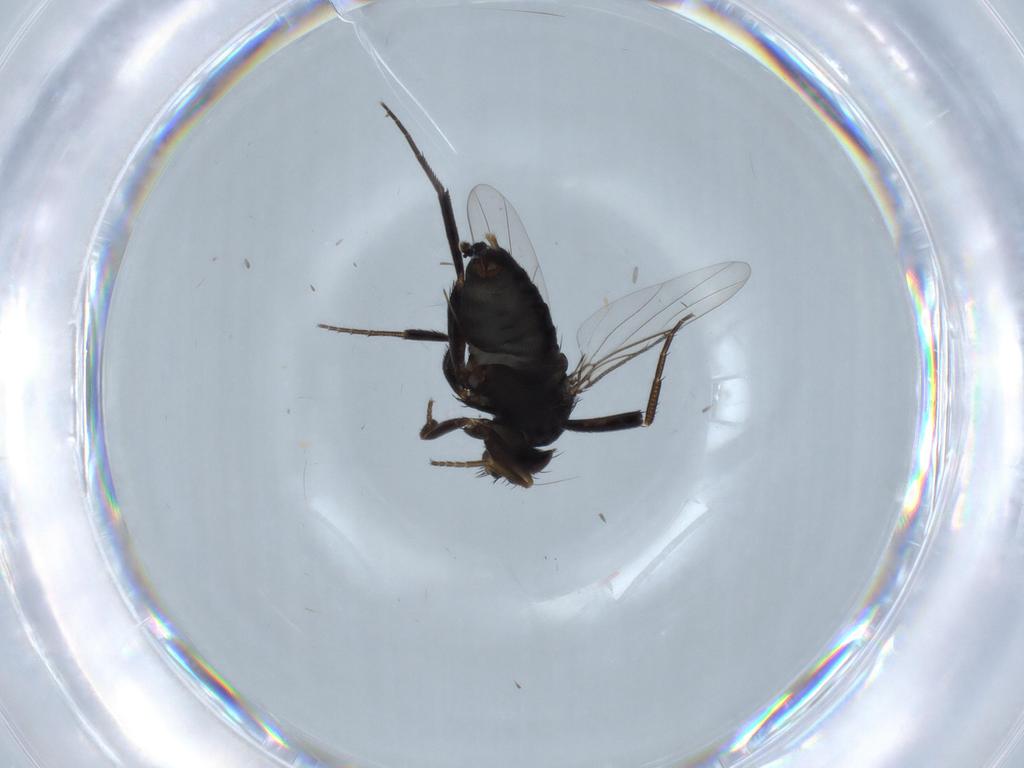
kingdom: Animalia
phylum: Arthropoda
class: Insecta
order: Diptera
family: Phoridae
